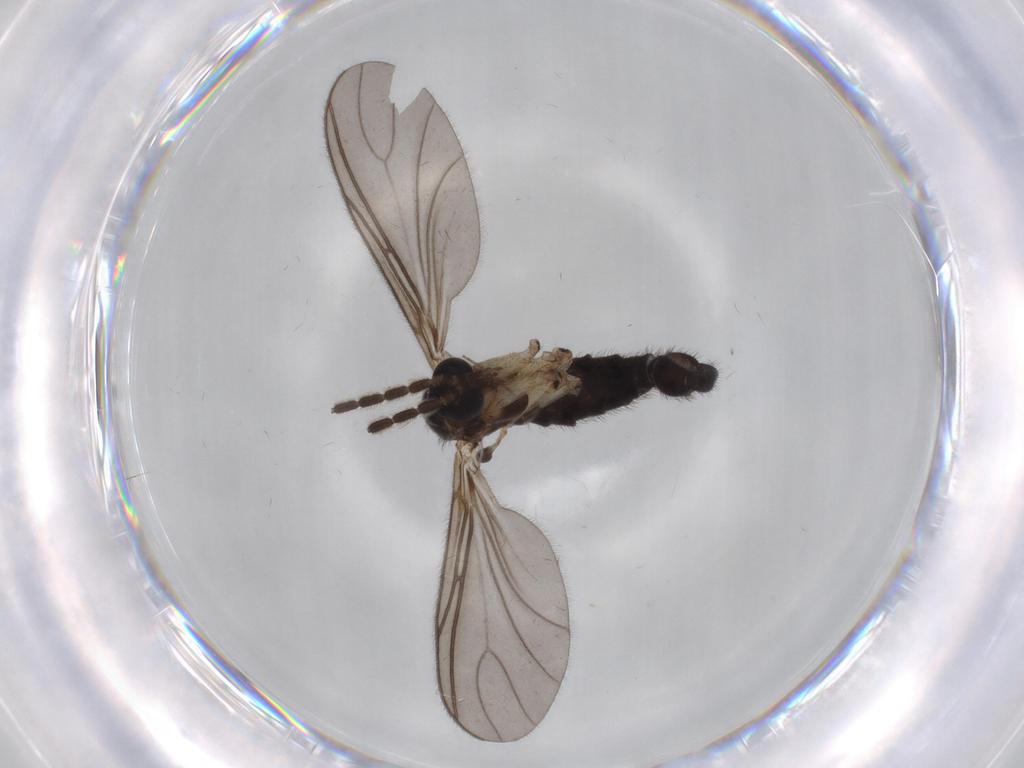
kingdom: Animalia
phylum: Arthropoda
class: Insecta
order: Diptera
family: Sciaridae
